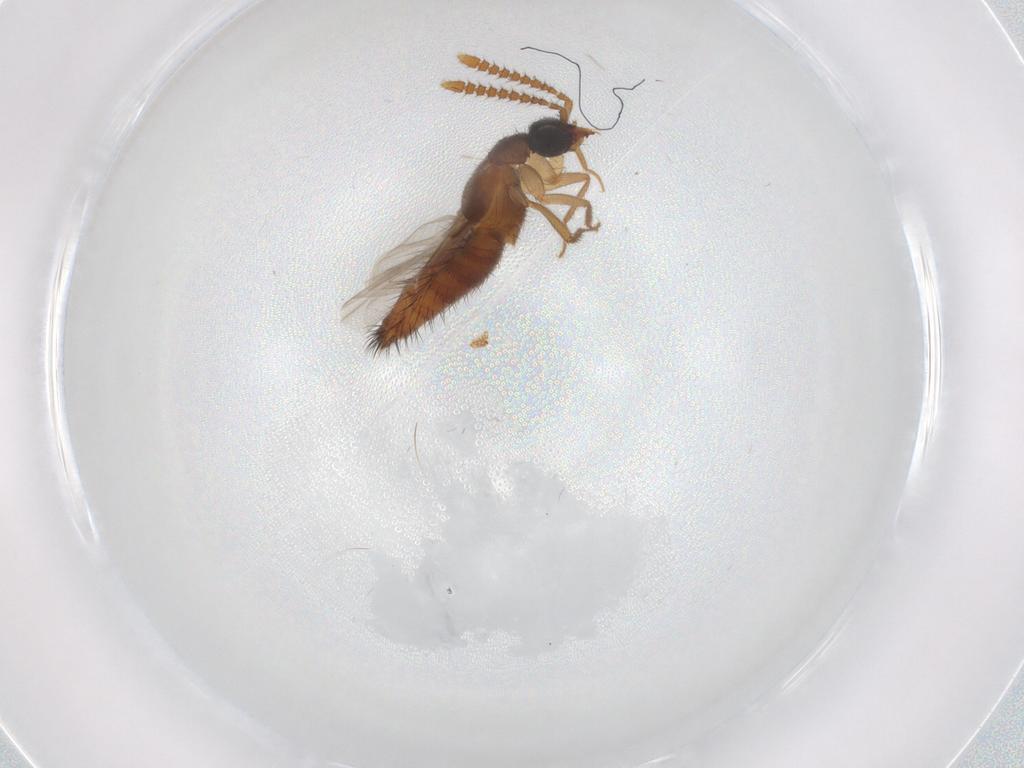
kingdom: Animalia
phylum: Arthropoda
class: Insecta
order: Coleoptera
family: Staphylinidae
